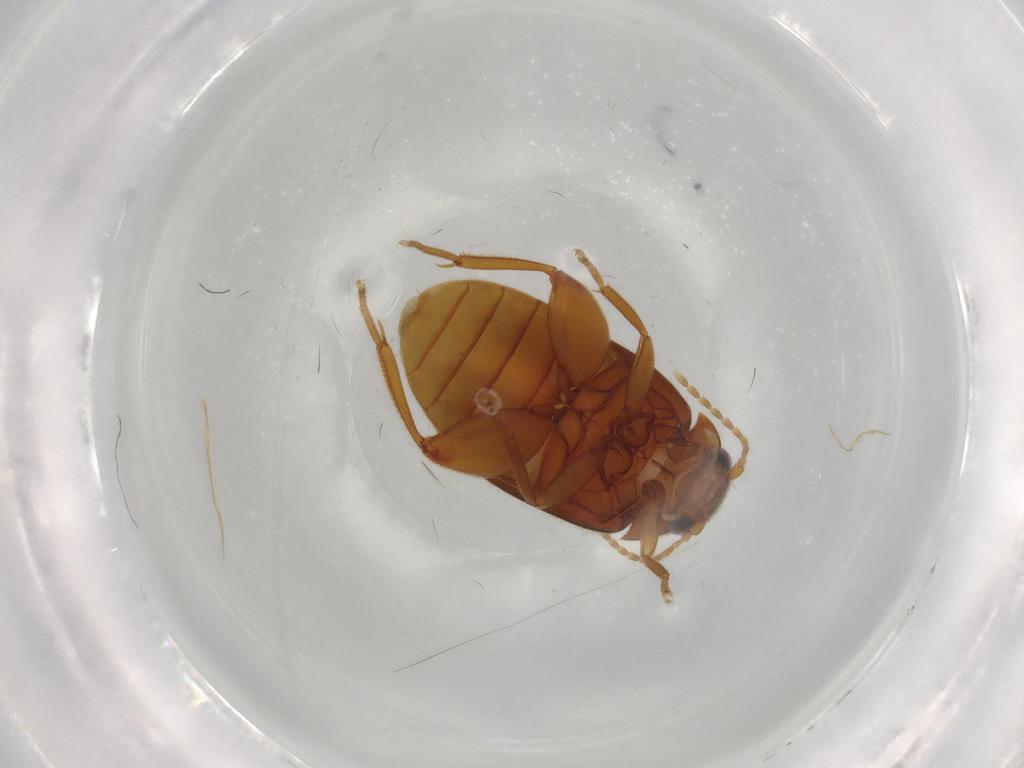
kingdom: Animalia
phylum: Arthropoda
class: Insecta
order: Coleoptera
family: Scirtidae
